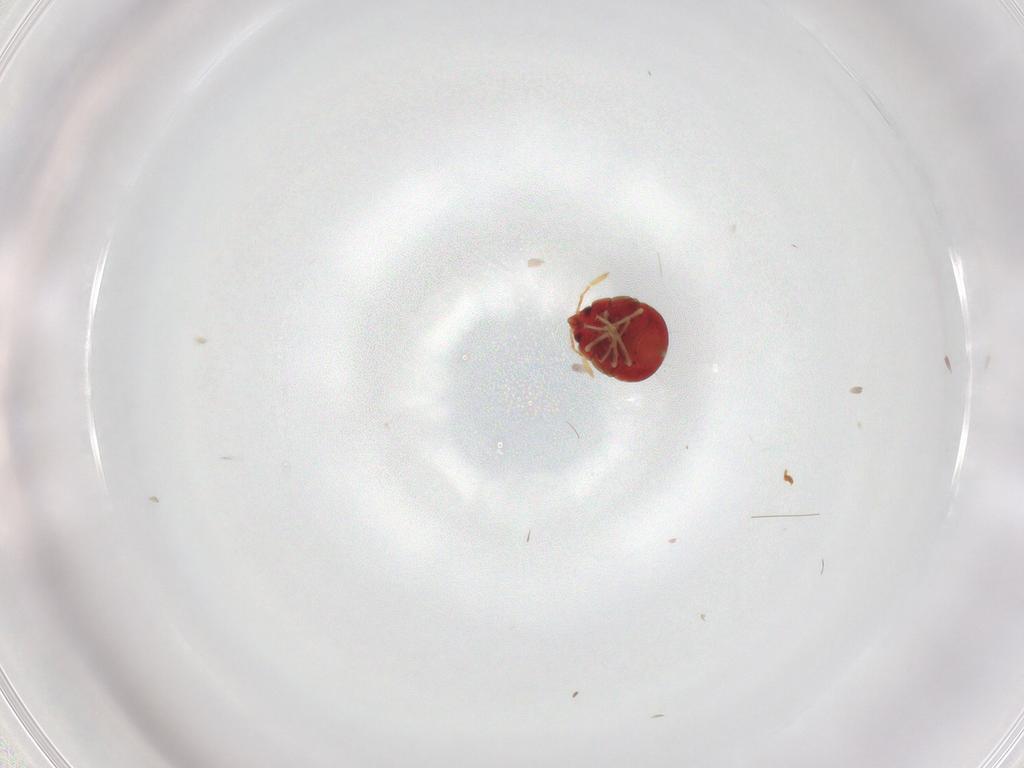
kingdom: Animalia
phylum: Arthropoda
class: Insecta
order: Hemiptera
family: Anthocoridae
